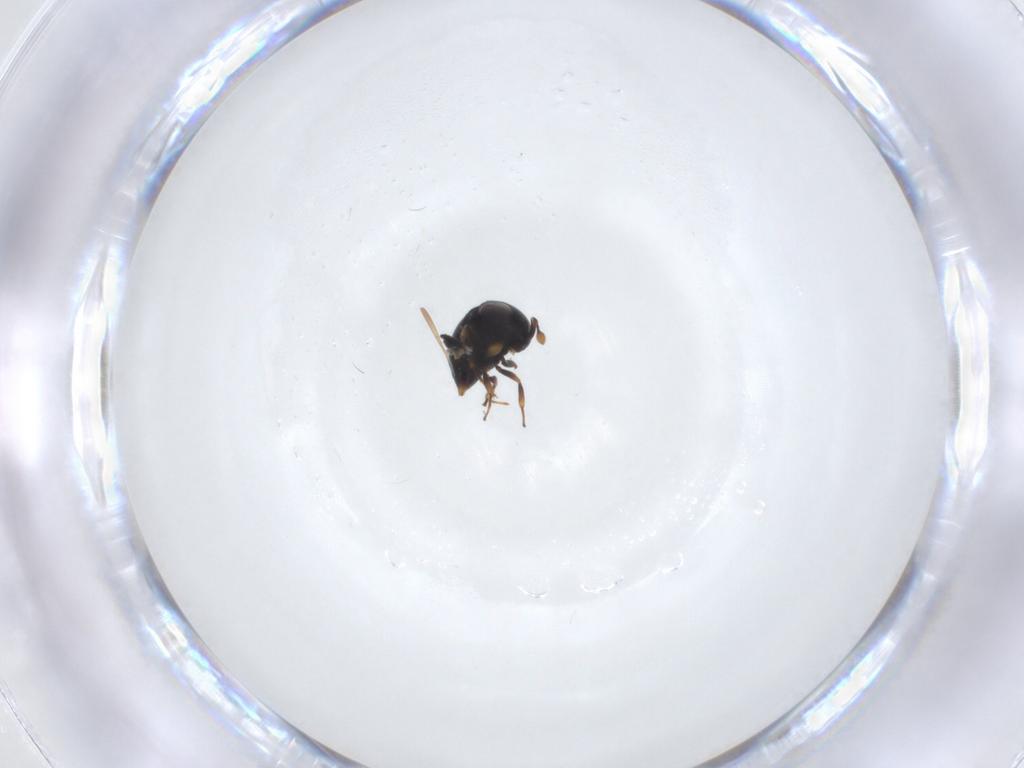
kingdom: Animalia
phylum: Arthropoda
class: Insecta
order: Hymenoptera
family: Scelionidae
